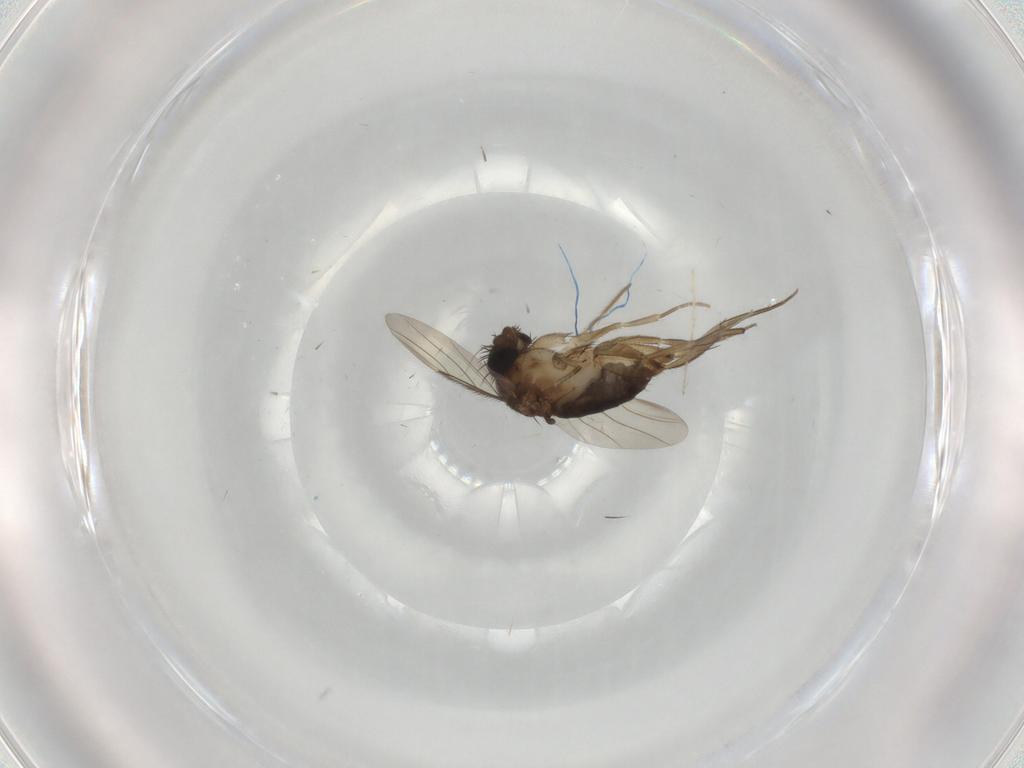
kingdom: Animalia
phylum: Arthropoda
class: Insecta
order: Diptera
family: Phoridae
